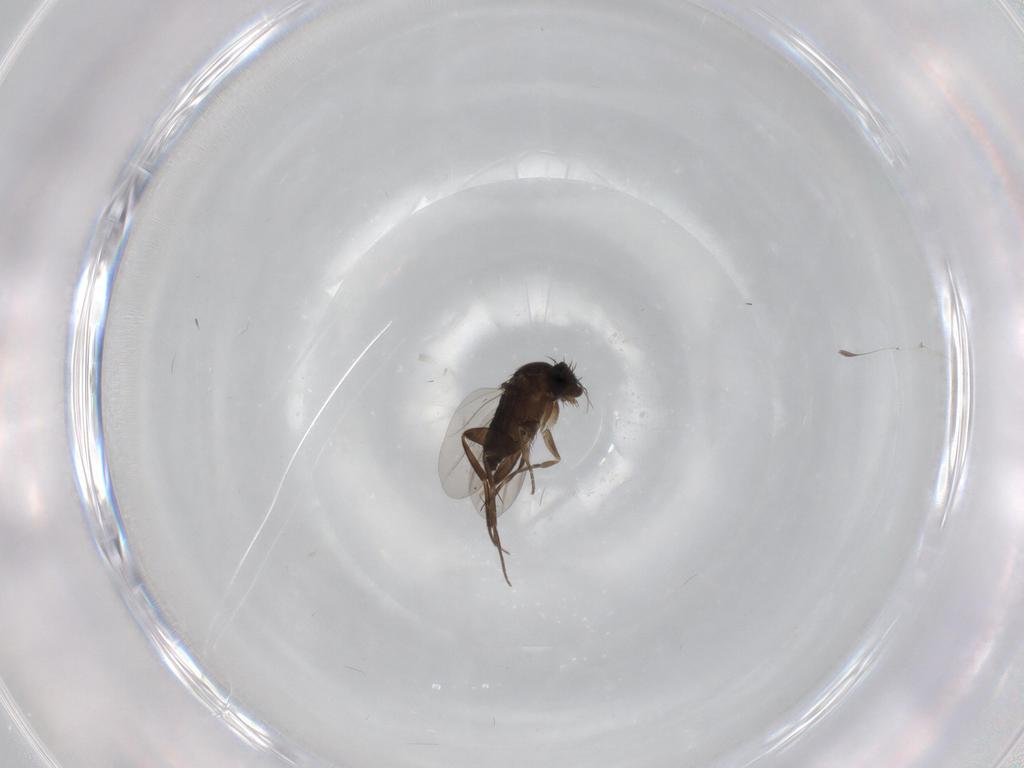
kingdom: Animalia
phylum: Arthropoda
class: Insecta
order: Diptera
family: Phoridae
